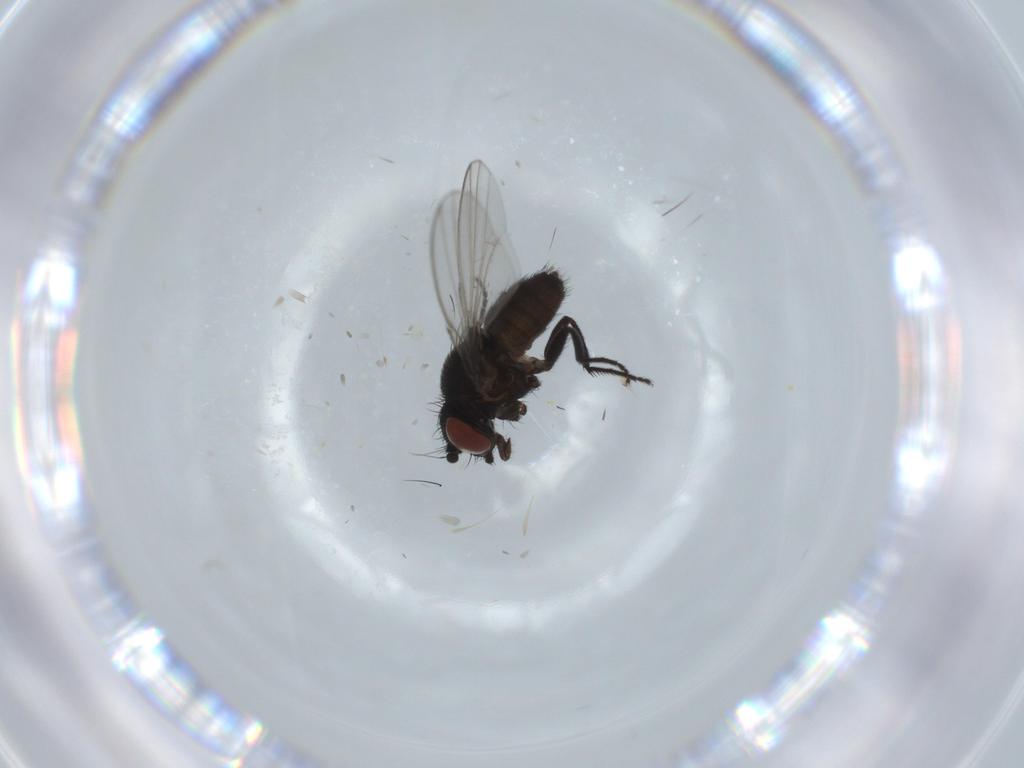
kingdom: Animalia
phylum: Arthropoda
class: Insecta
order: Diptera
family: Milichiidae
